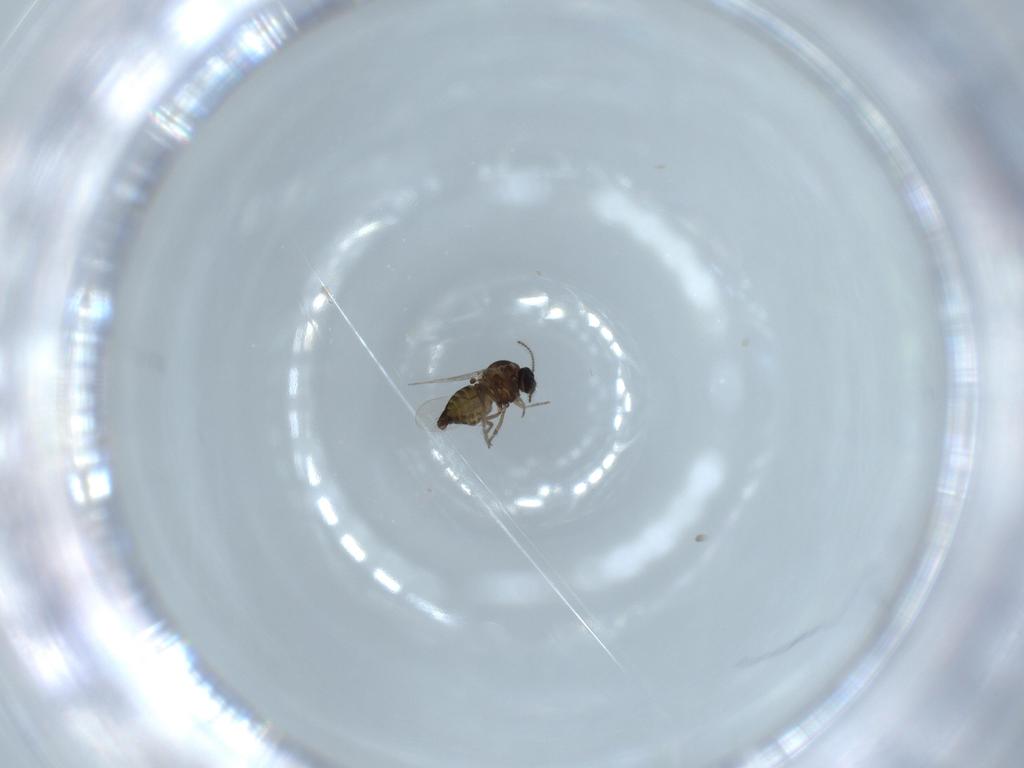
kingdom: Animalia
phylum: Arthropoda
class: Insecta
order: Diptera
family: Ceratopogonidae
